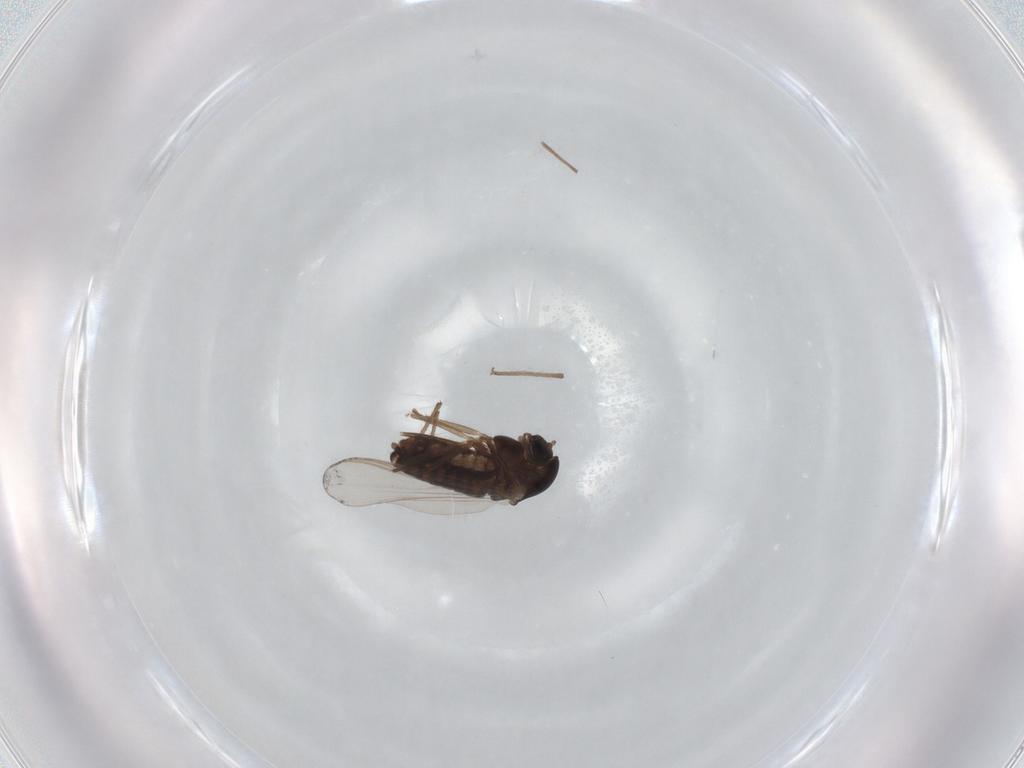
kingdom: Animalia
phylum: Arthropoda
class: Insecta
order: Diptera
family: Chironomidae
